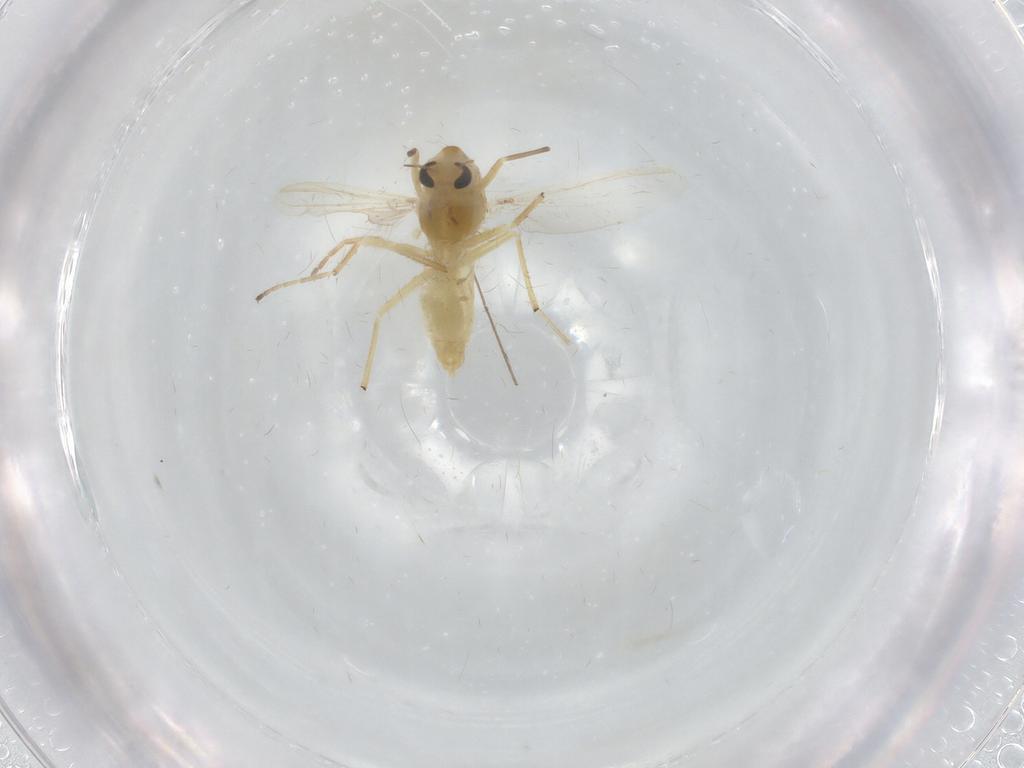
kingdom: Animalia
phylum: Arthropoda
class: Insecta
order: Diptera
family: Chironomidae
